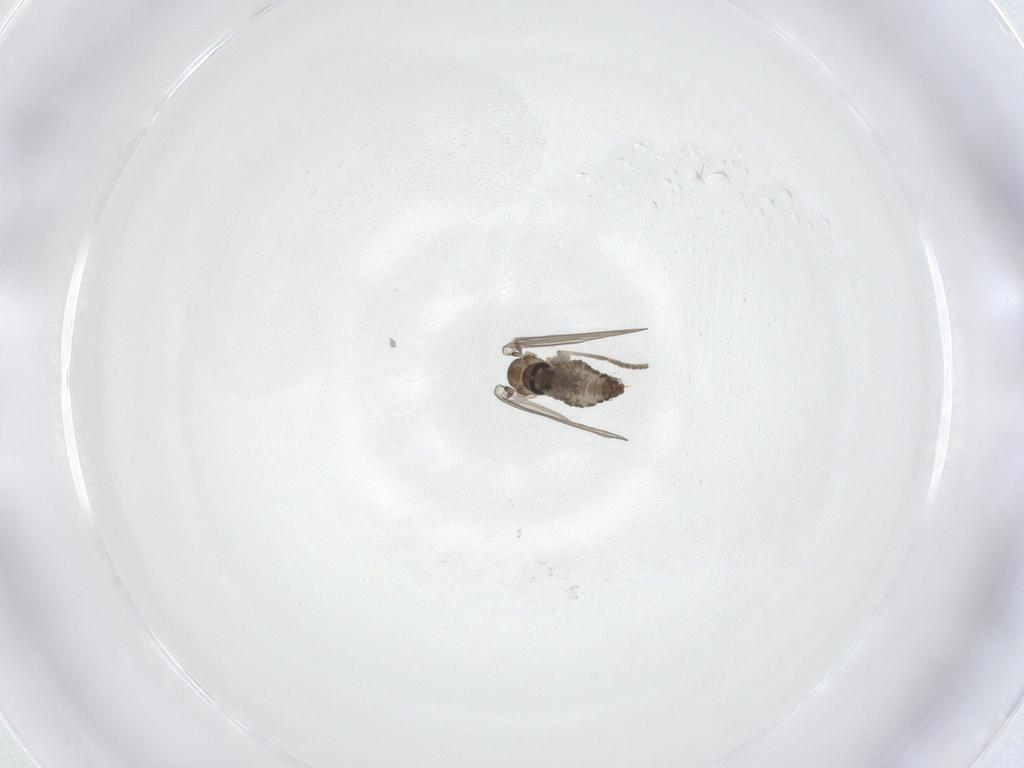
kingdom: Animalia
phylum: Arthropoda
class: Insecta
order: Diptera
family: Psychodidae
